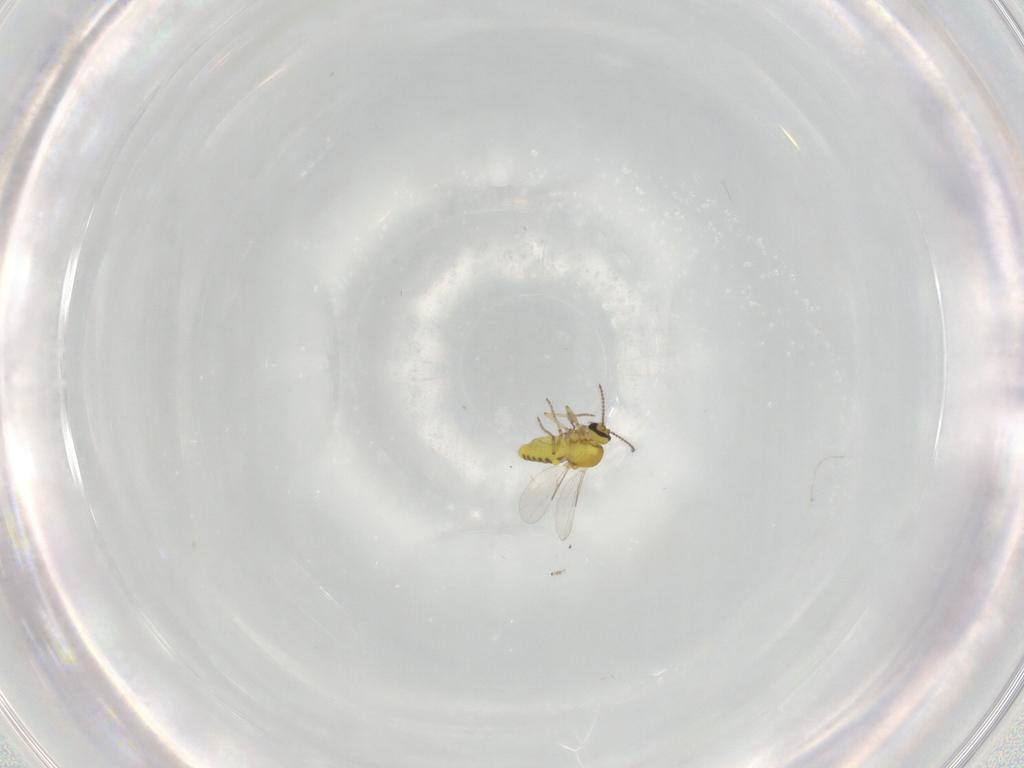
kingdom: Animalia
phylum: Arthropoda
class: Insecta
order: Diptera
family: Ceratopogonidae
